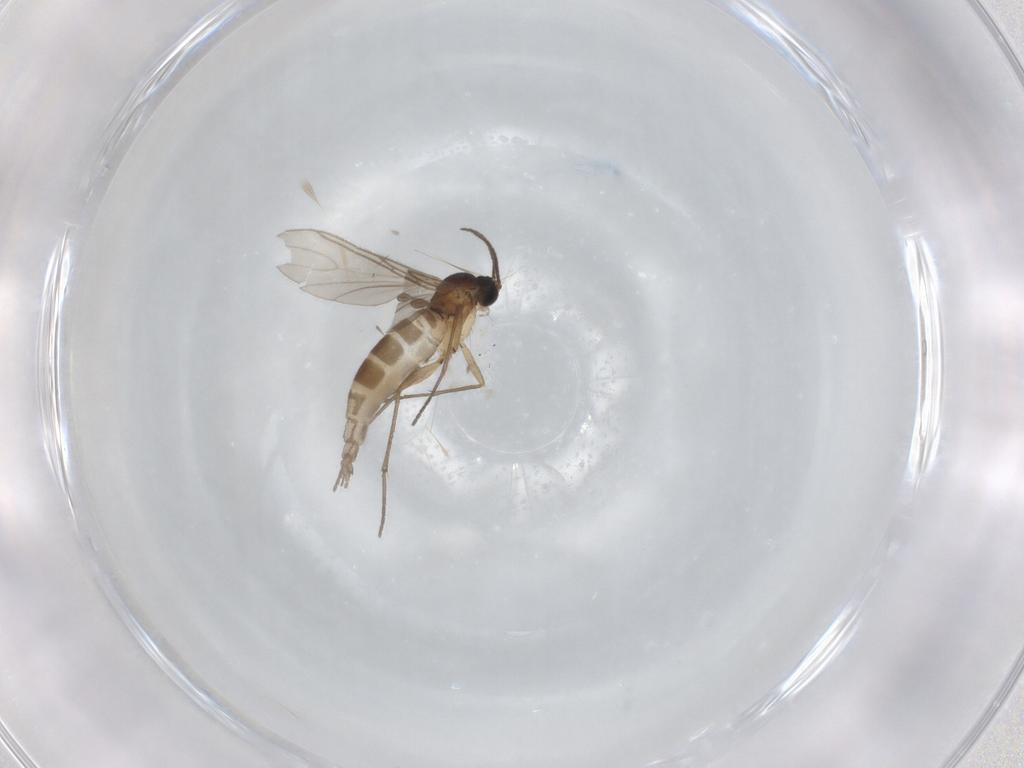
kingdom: Animalia
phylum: Arthropoda
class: Insecta
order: Diptera
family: Sciaridae
